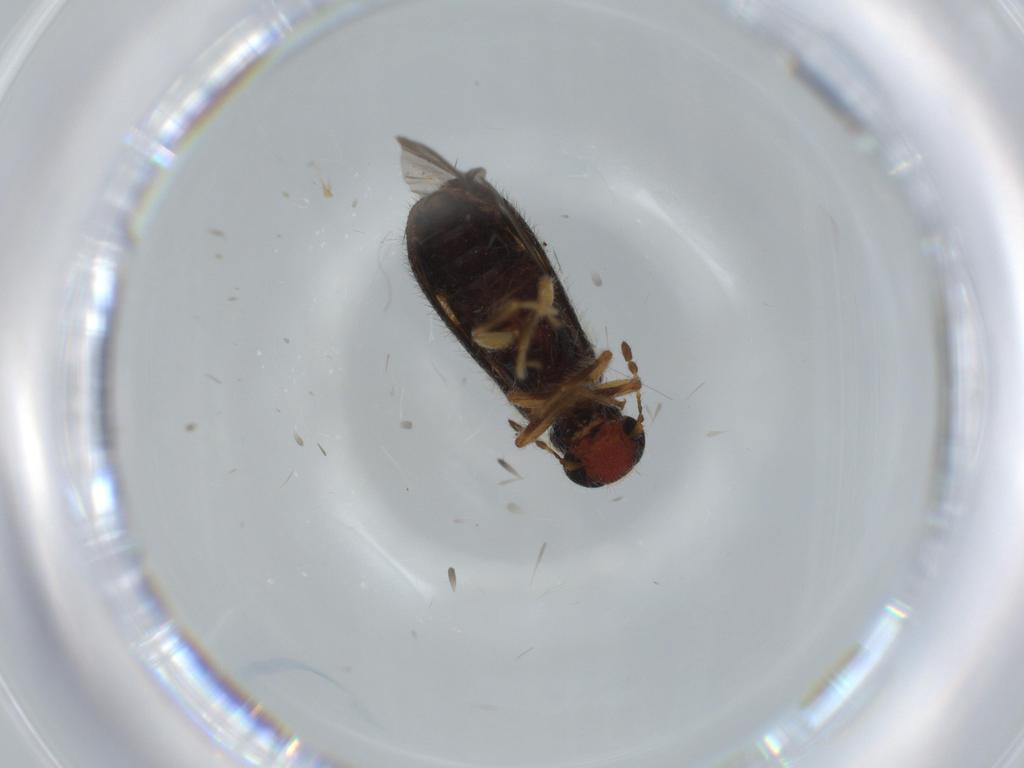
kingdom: Animalia
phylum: Arthropoda
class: Insecta
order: Coleoptera
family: Cleridae
